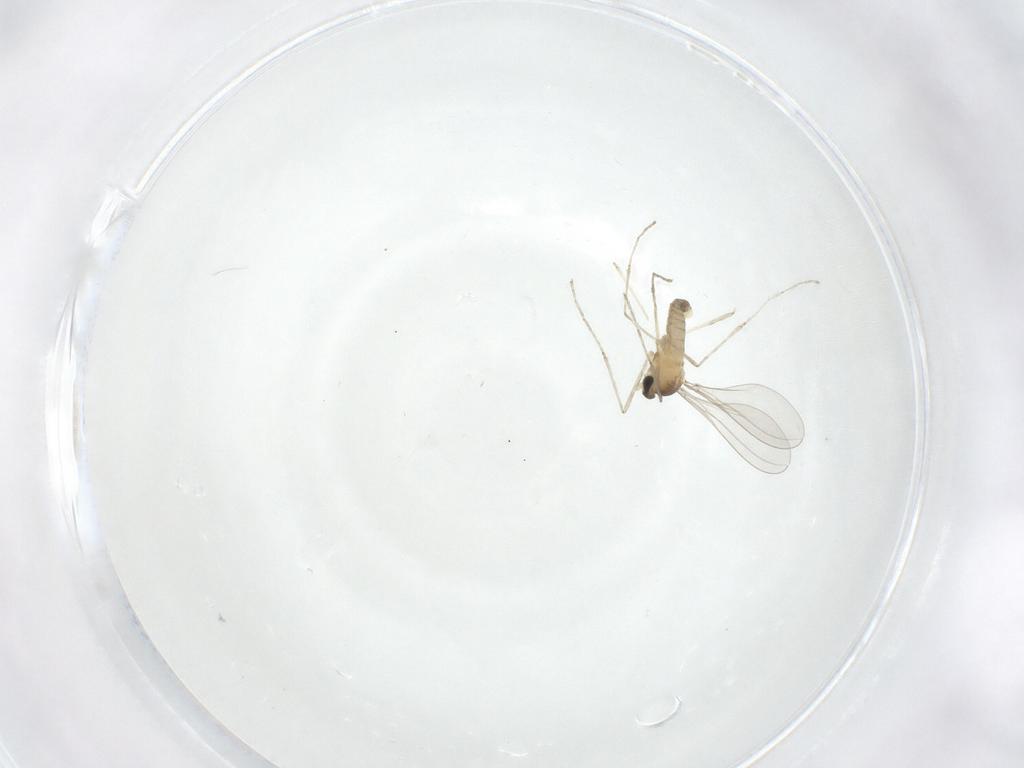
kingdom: Animalia
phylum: Arthropoda
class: Insecta
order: Diptera
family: Cecidomyiidae
